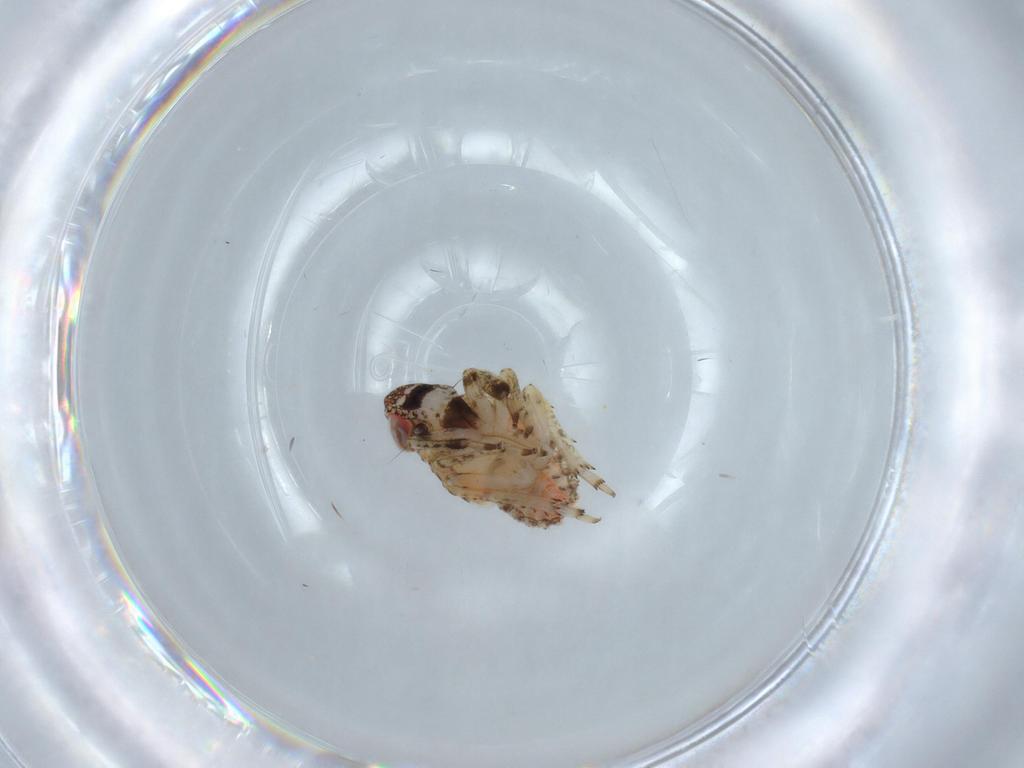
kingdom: Animalia
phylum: Arthropoda
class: Insecta
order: Hemiptera
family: Issidae
